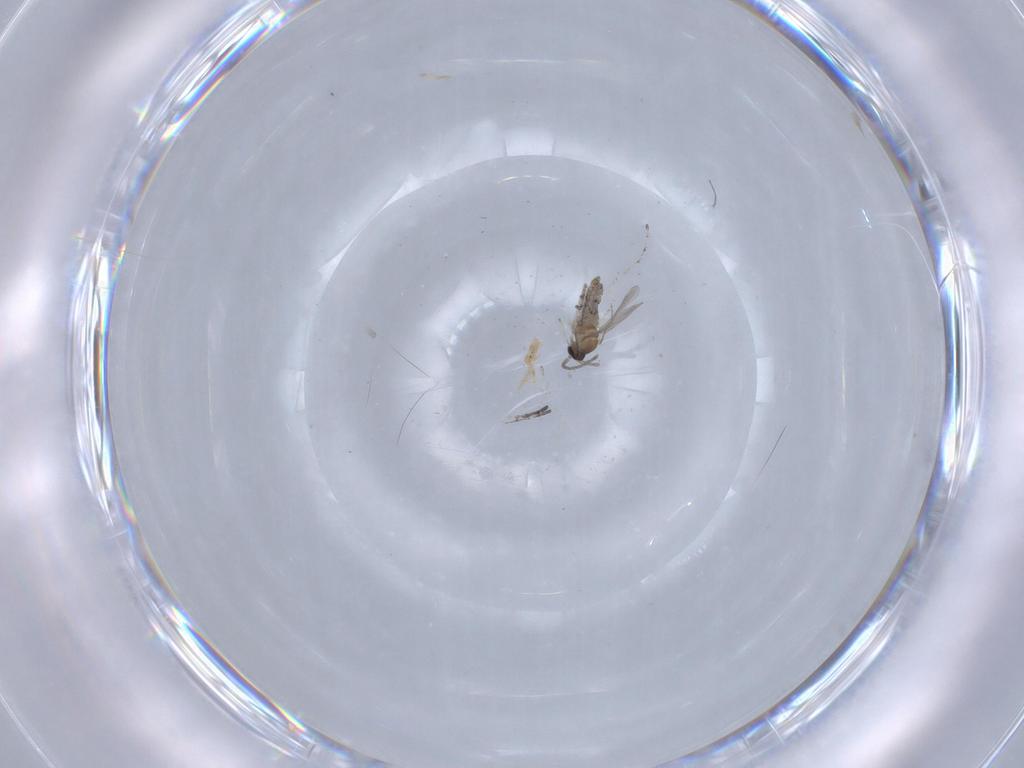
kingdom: Animalia
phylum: Arthropoda
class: Insecta
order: Diptera
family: Cecidomyiidae
